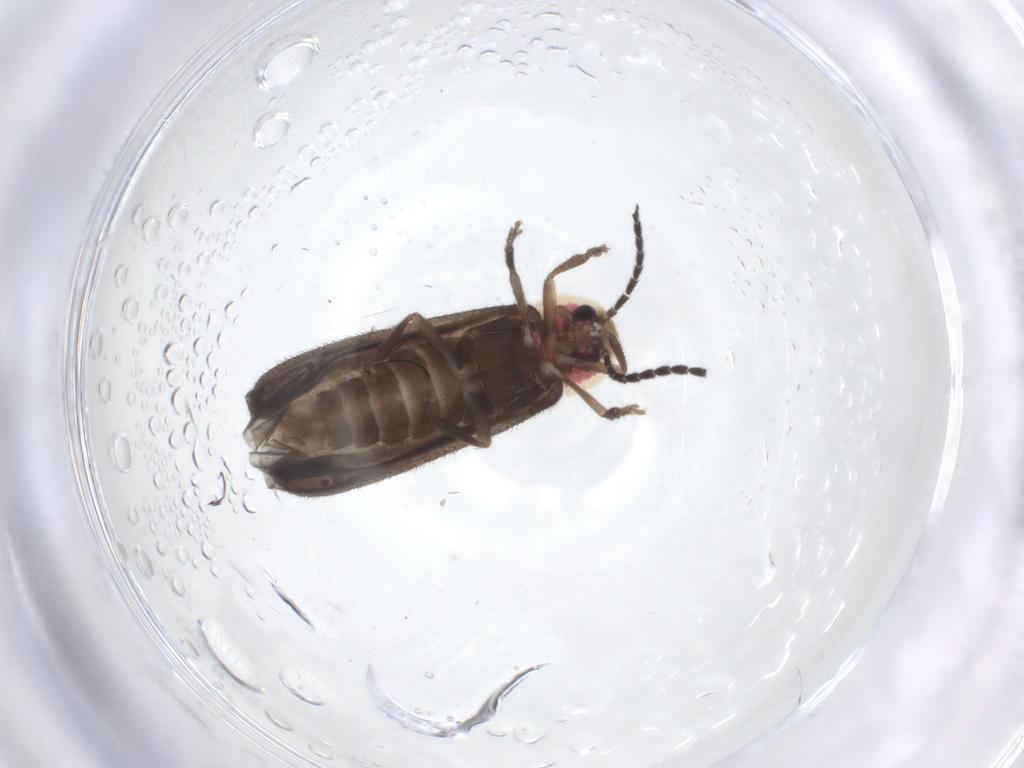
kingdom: Animalia
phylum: Arthropoda
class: Insecta
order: Coleoptera
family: Lampyridae
